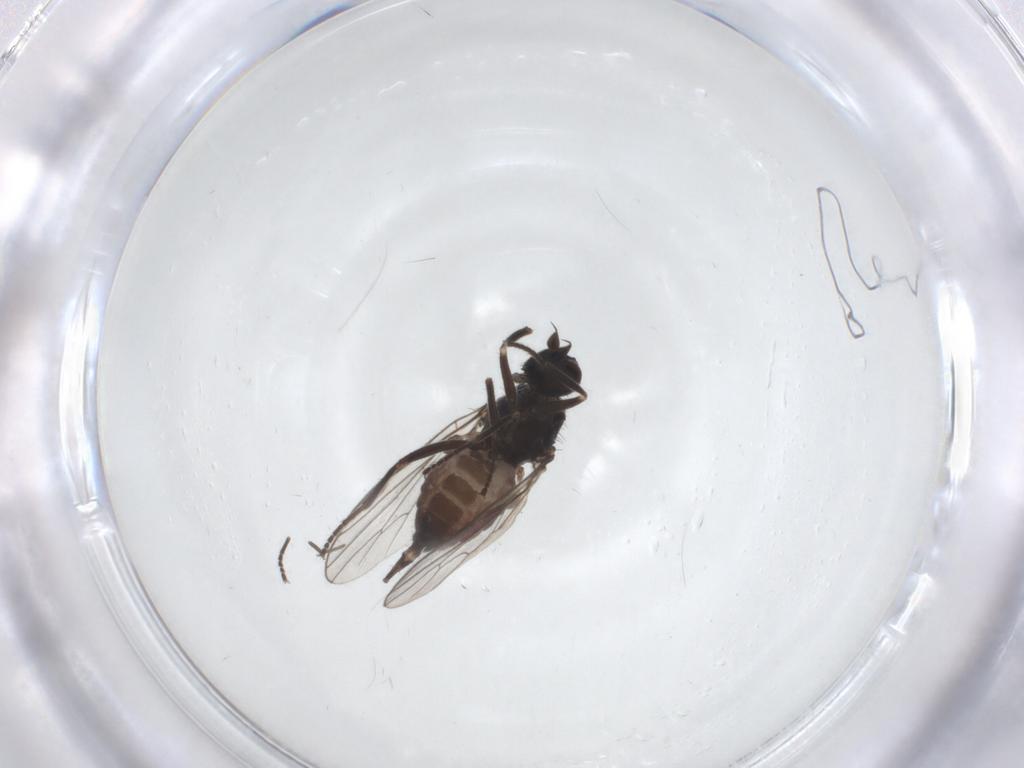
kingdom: Animalia
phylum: Arthropoda
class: Insecta
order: Diptera
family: Hybotidae
